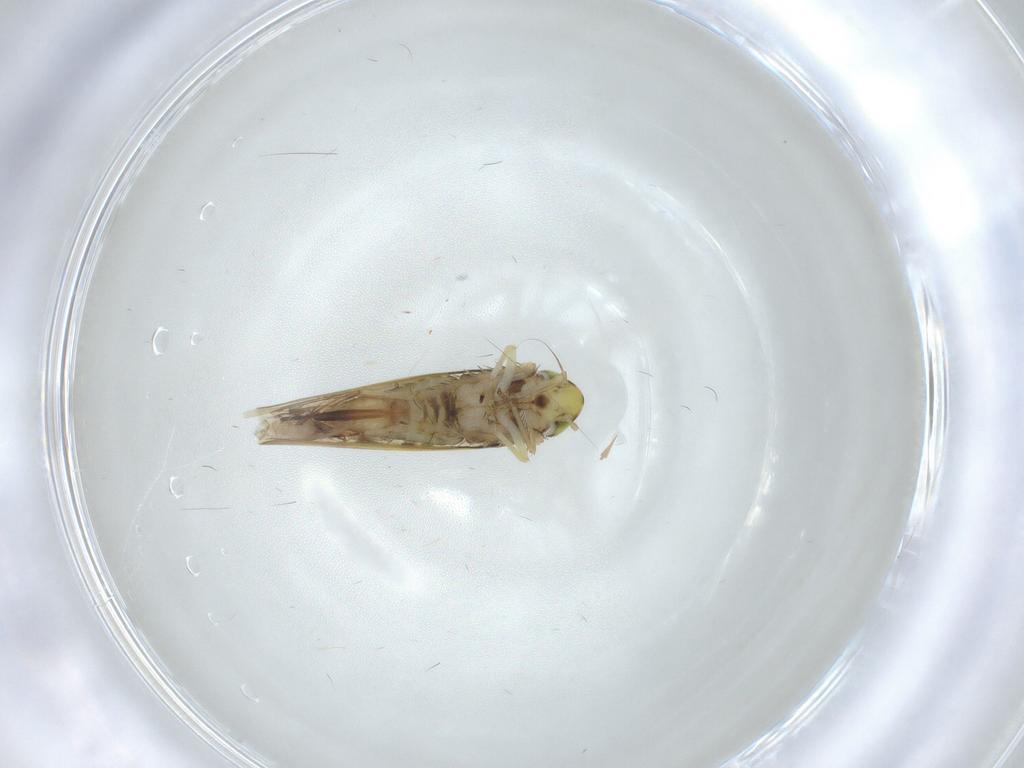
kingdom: Animalia
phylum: Arthropoda
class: Insecta
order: Hemiptera
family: Cicadellidae
